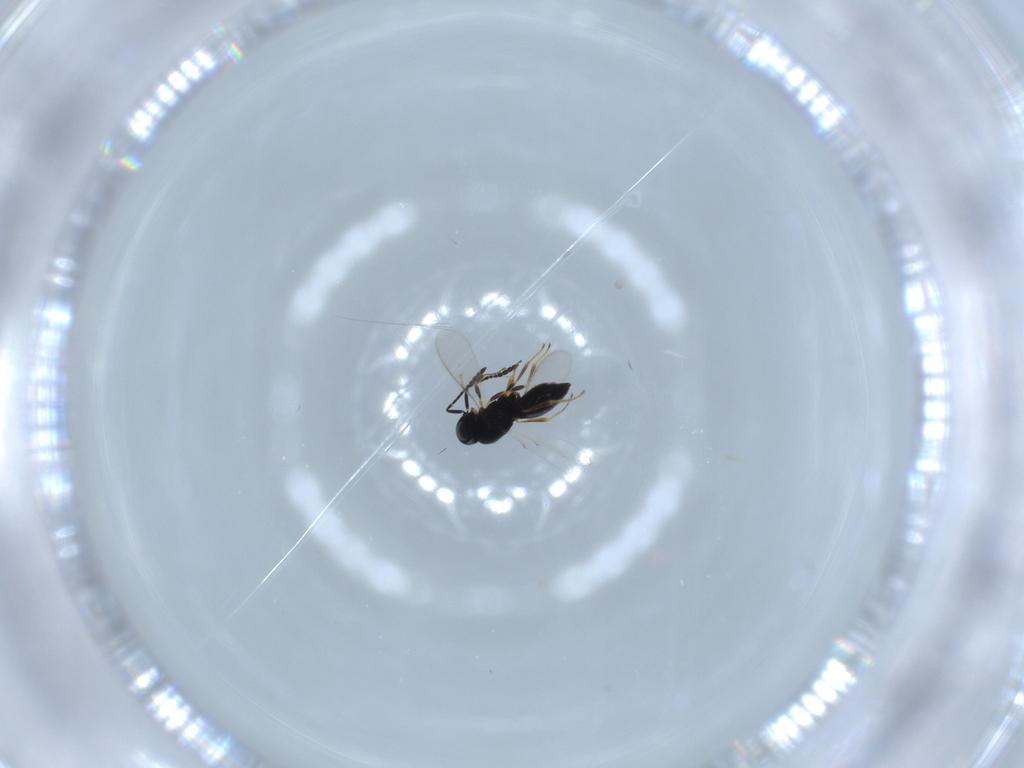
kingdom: Animalia
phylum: Arthropoda
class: Insecta
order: Hymenoptera
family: Scelionidae
